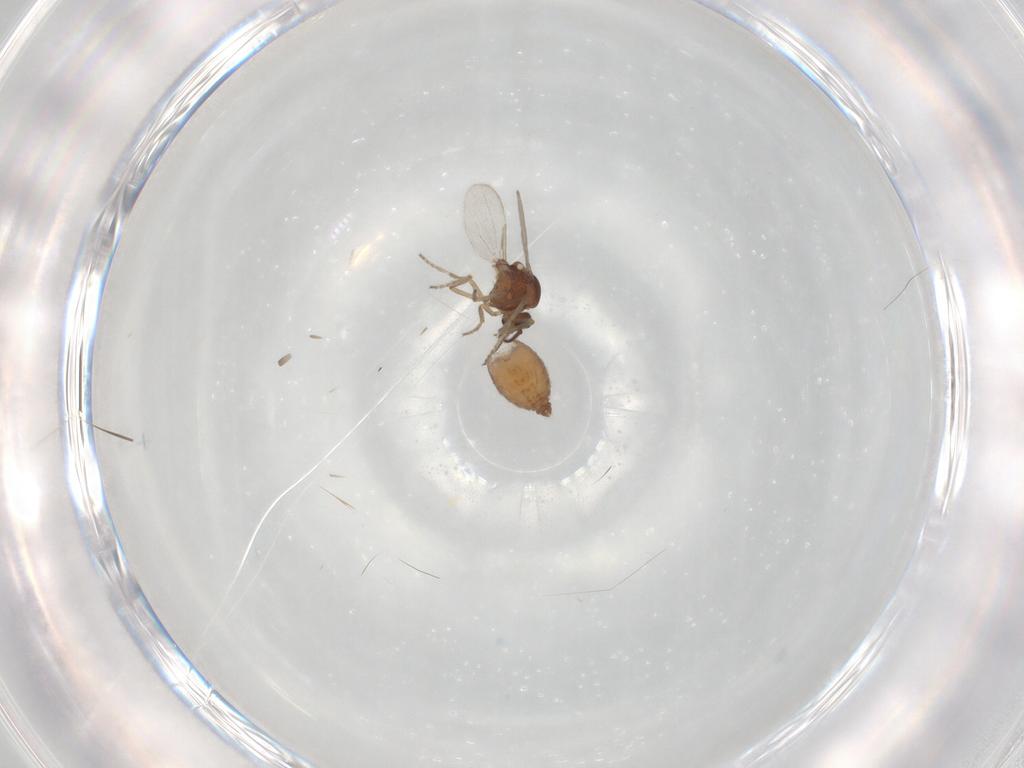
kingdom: Animalia
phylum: Arthropoda
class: Insecta
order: Diptera
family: Ceratopogonidae
